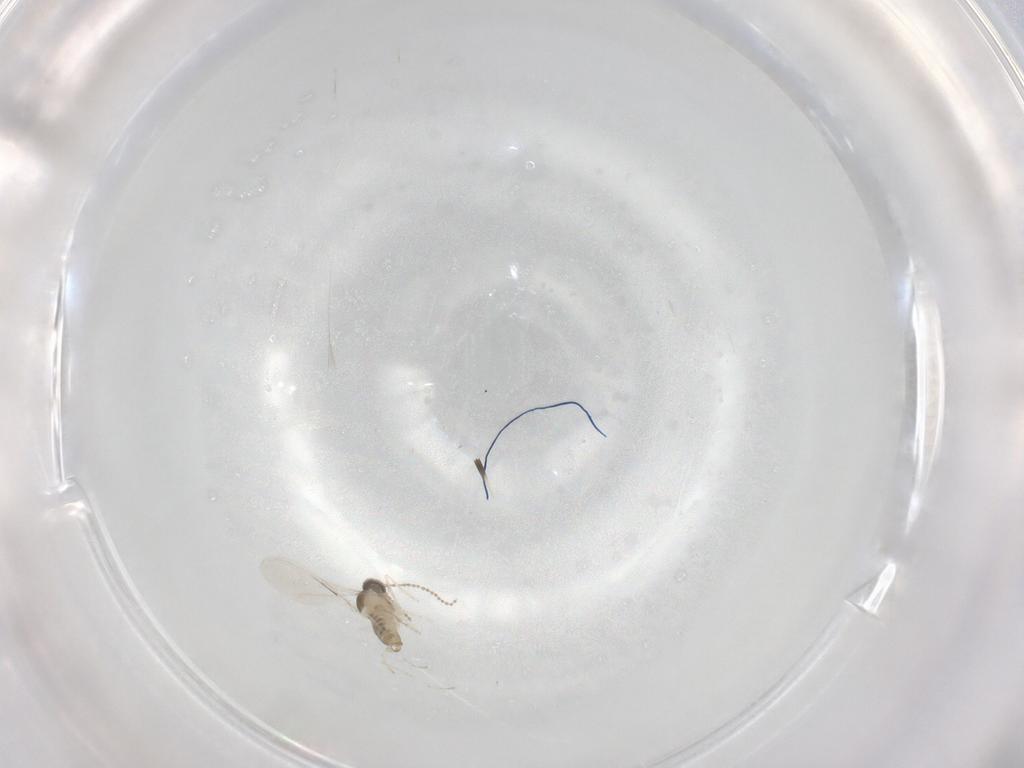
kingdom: Animalia
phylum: Arthropoda
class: Insecta
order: Diptera
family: Cecidomyiidae
